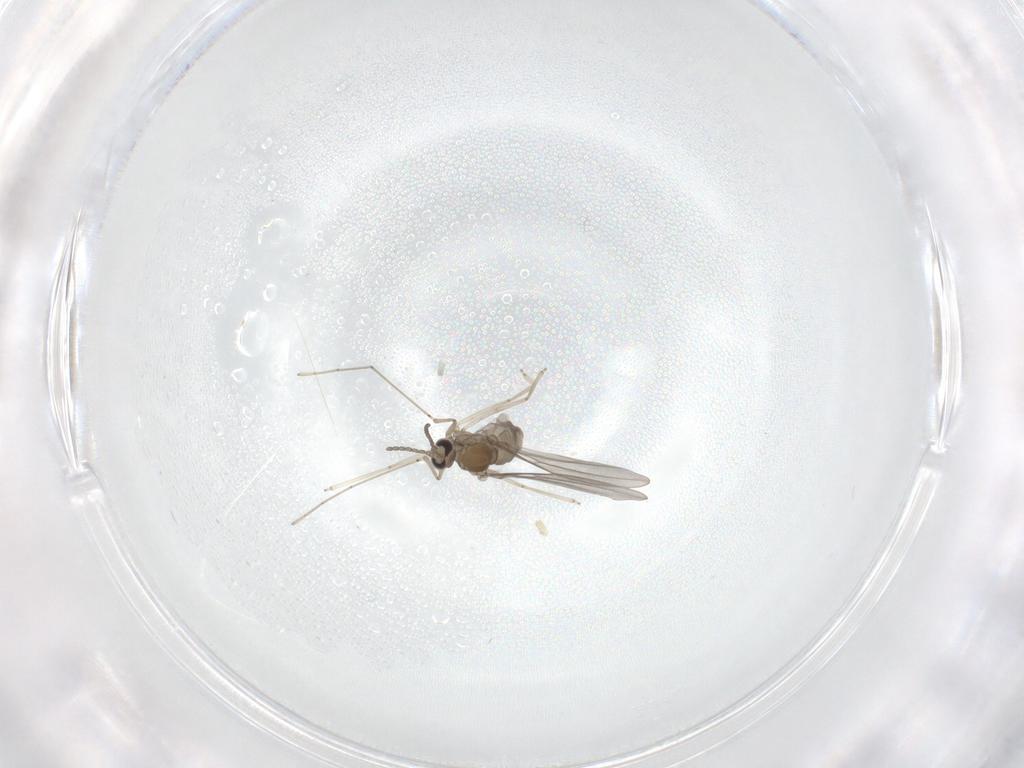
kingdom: Animalia
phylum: Arthropoda
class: Insecta
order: Diptera
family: Cecidomyiidae
